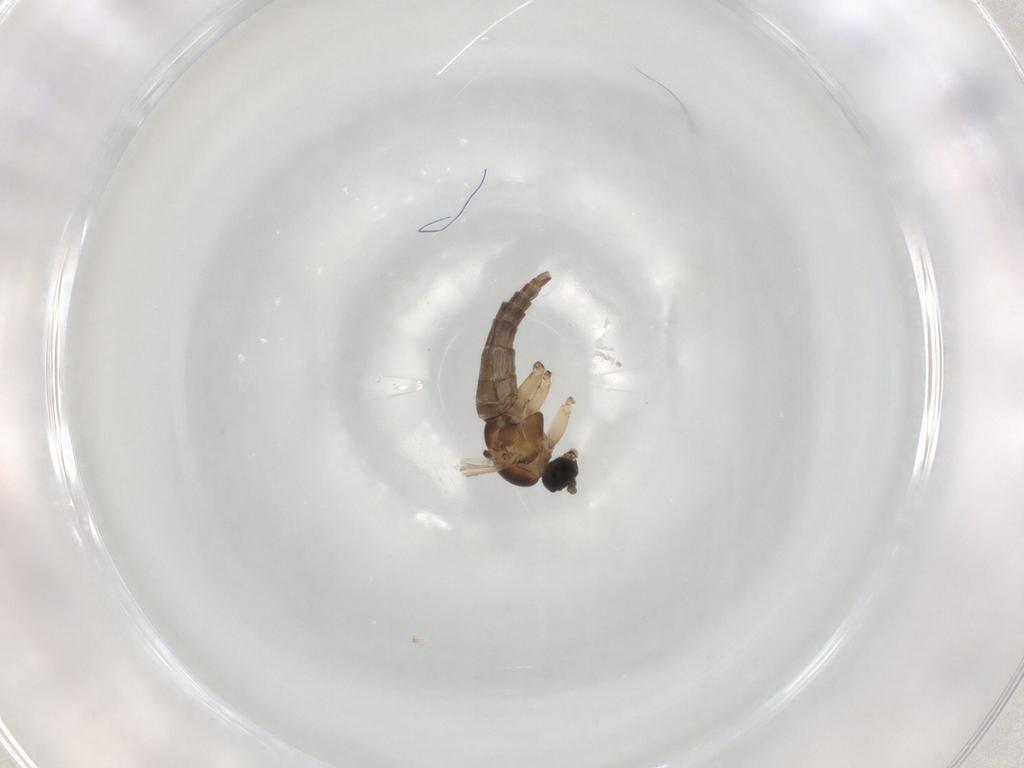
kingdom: Animalia
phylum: Arthropoda
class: Insecta
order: Diptera
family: Sciaridae
